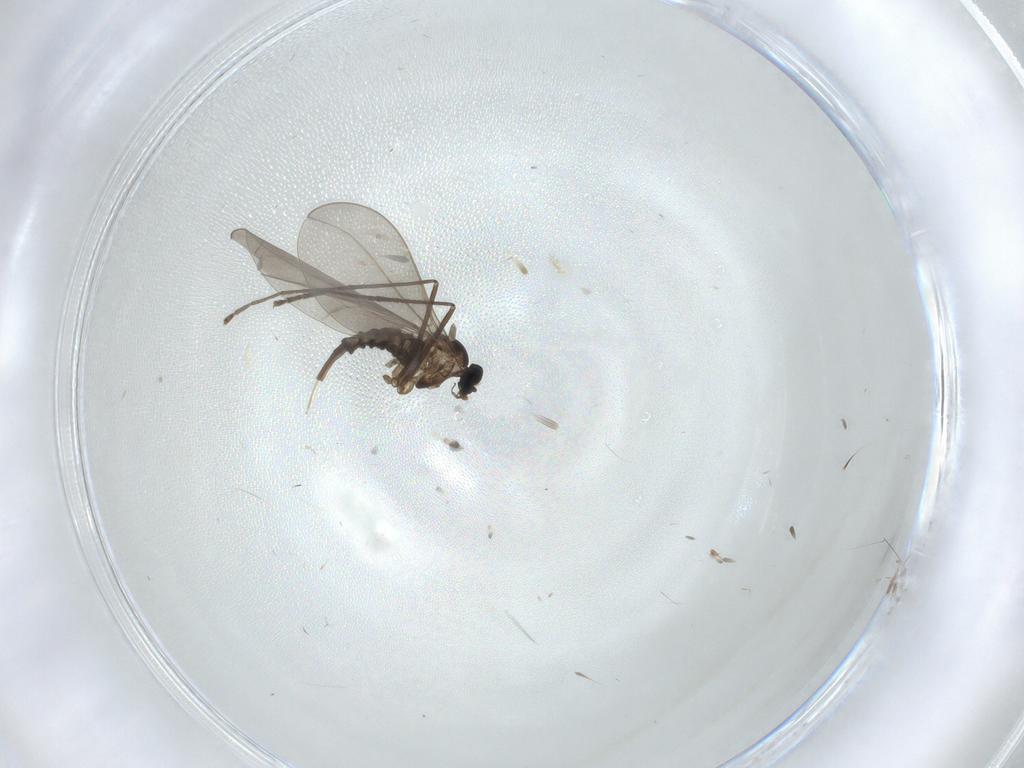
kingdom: Animalia
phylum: Arthropoda
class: Insecta
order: Diptera
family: Cecidomyiidae
